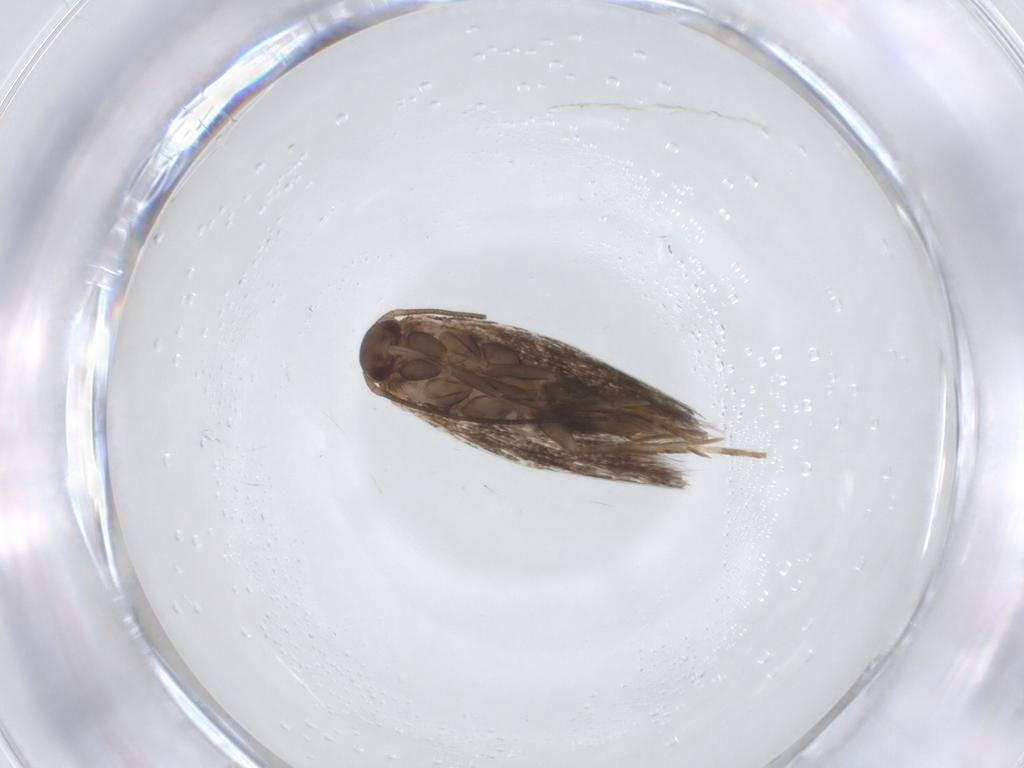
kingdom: Animalia
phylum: Arthropoda
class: Insecta
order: Lepidoptera
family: Elachistidae
